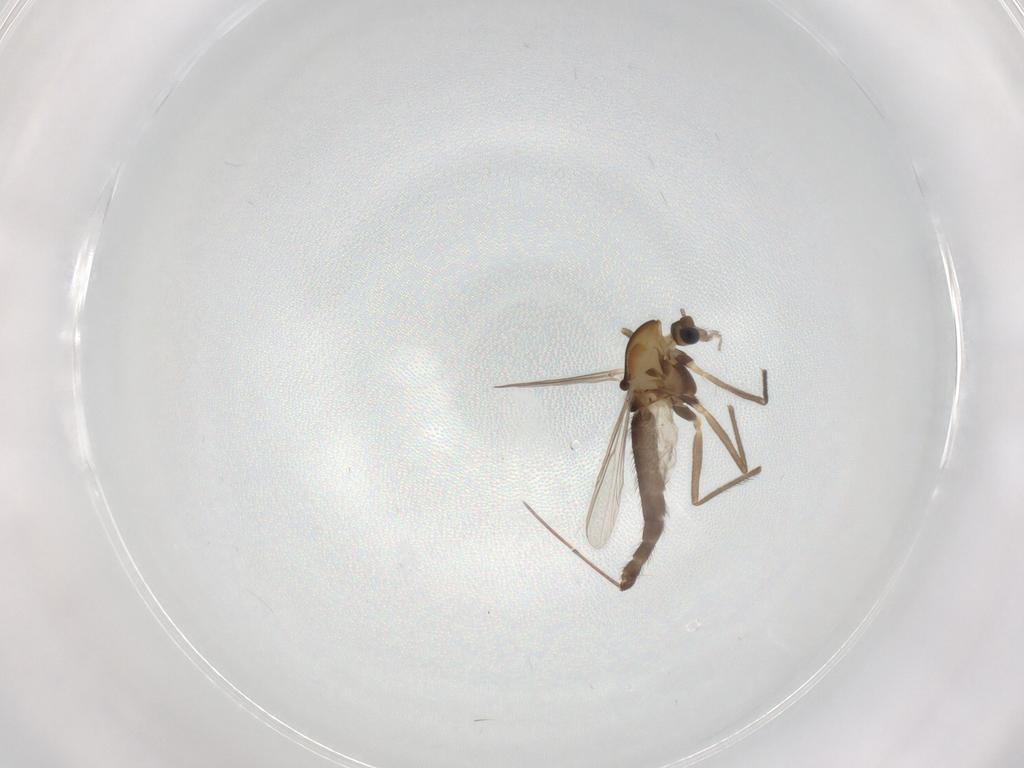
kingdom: Animalia
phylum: Arthropoda
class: Insecta
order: Diptera
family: Chironomidae
